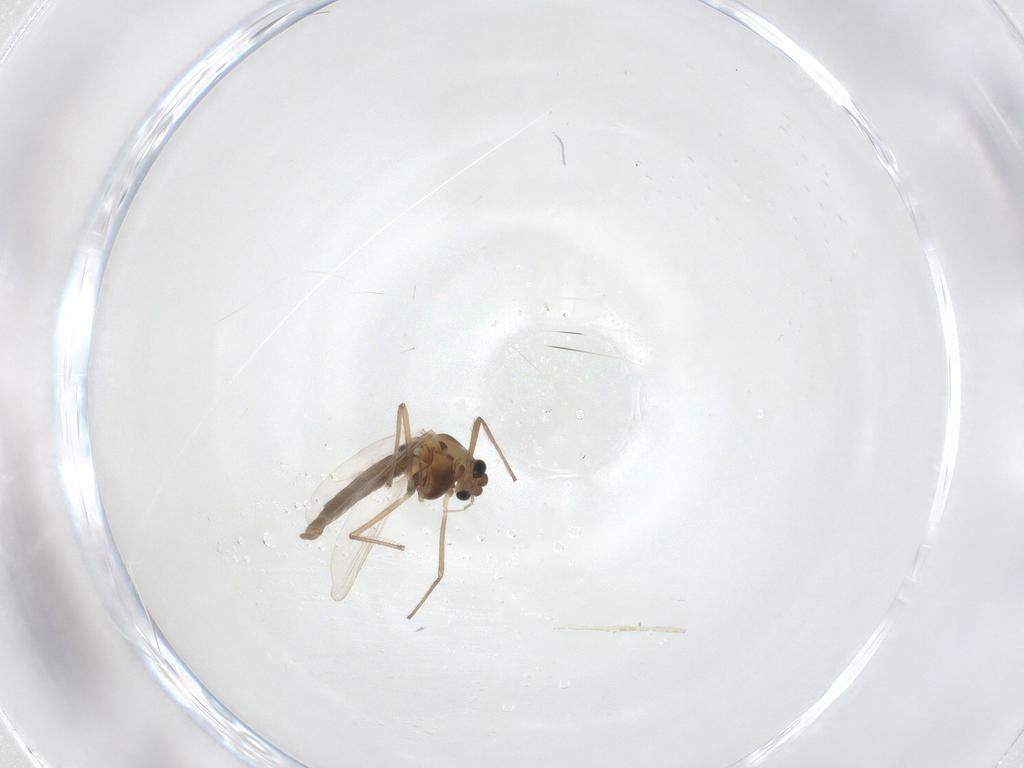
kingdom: Animalia
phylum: Arthropoda
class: Insecta
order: Diptera
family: Chironomidae
